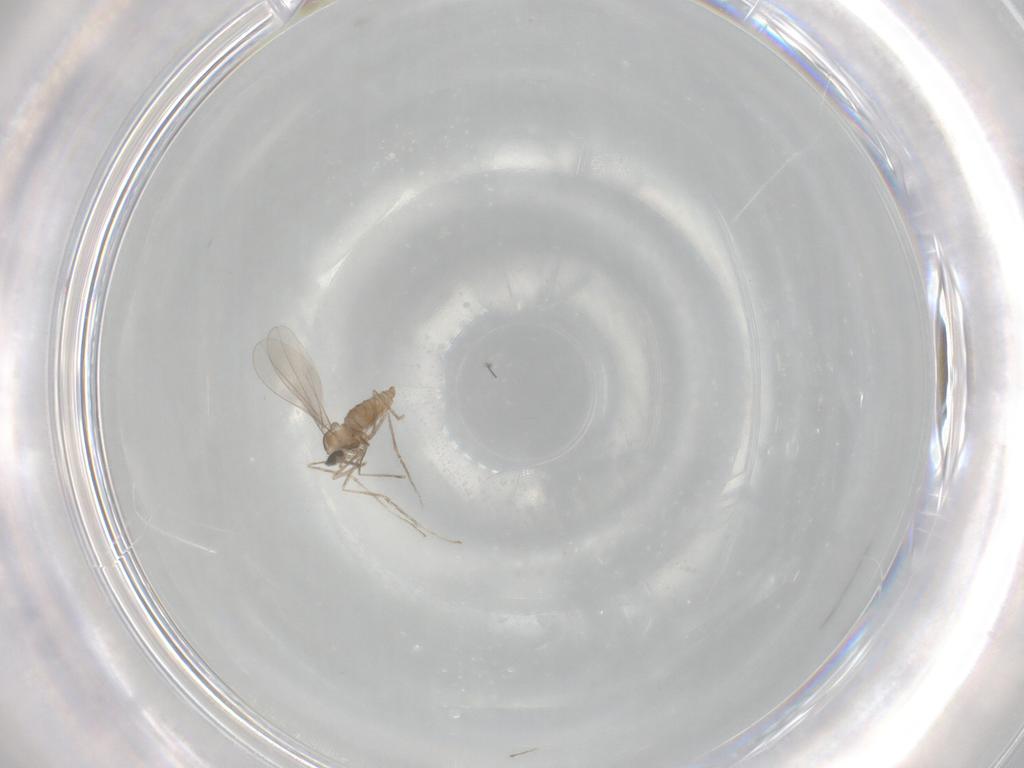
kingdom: Animalia
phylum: Arthropoda
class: Insecta
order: Diptera
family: Cecidomyiidae
